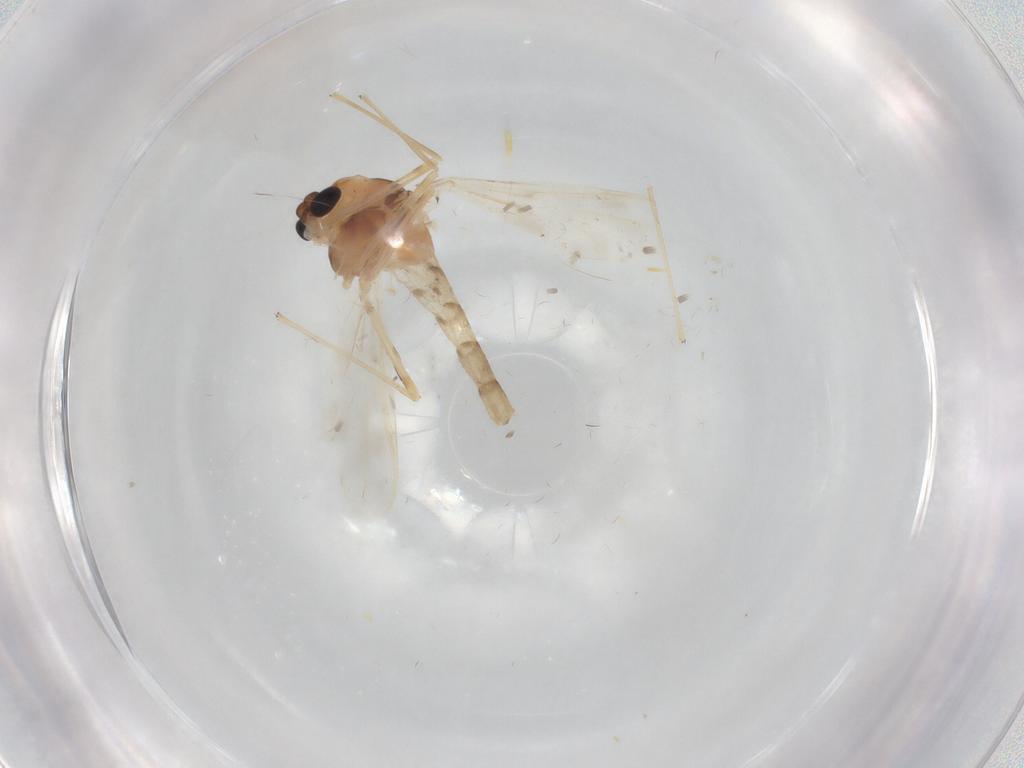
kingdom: Animalia
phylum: Arthropoda
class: Insecta
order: Diptera
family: Chironomidae
